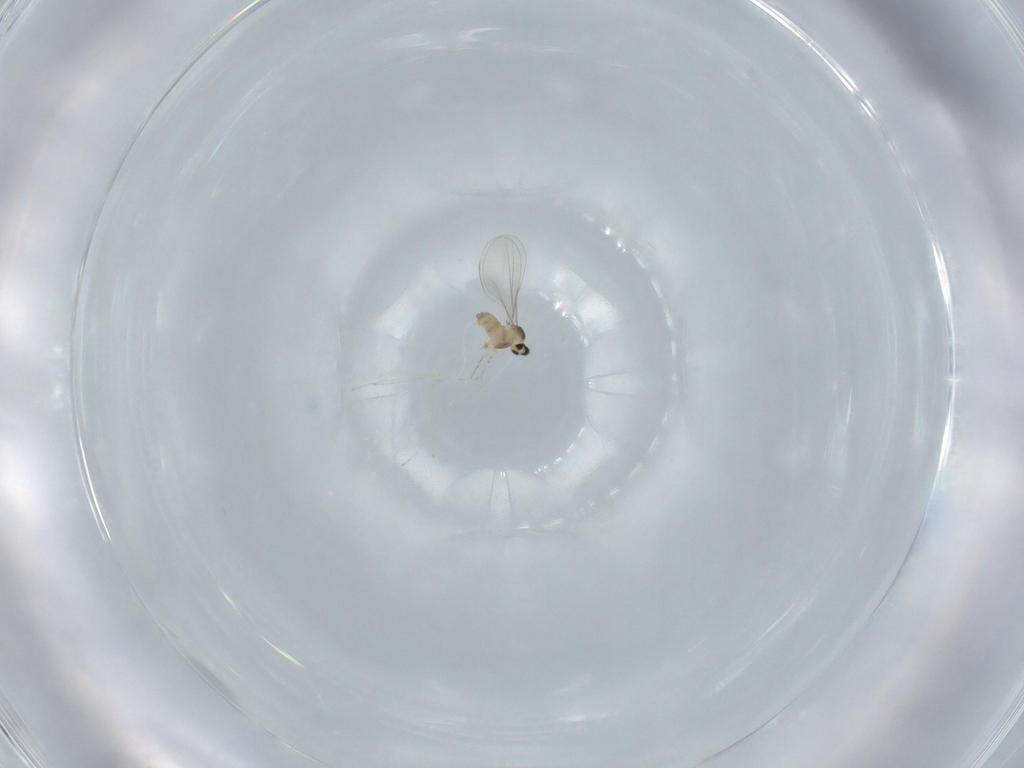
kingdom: Animalia
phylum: Arthropoda
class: Insecta
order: Diptera
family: Cecidomyiidae
